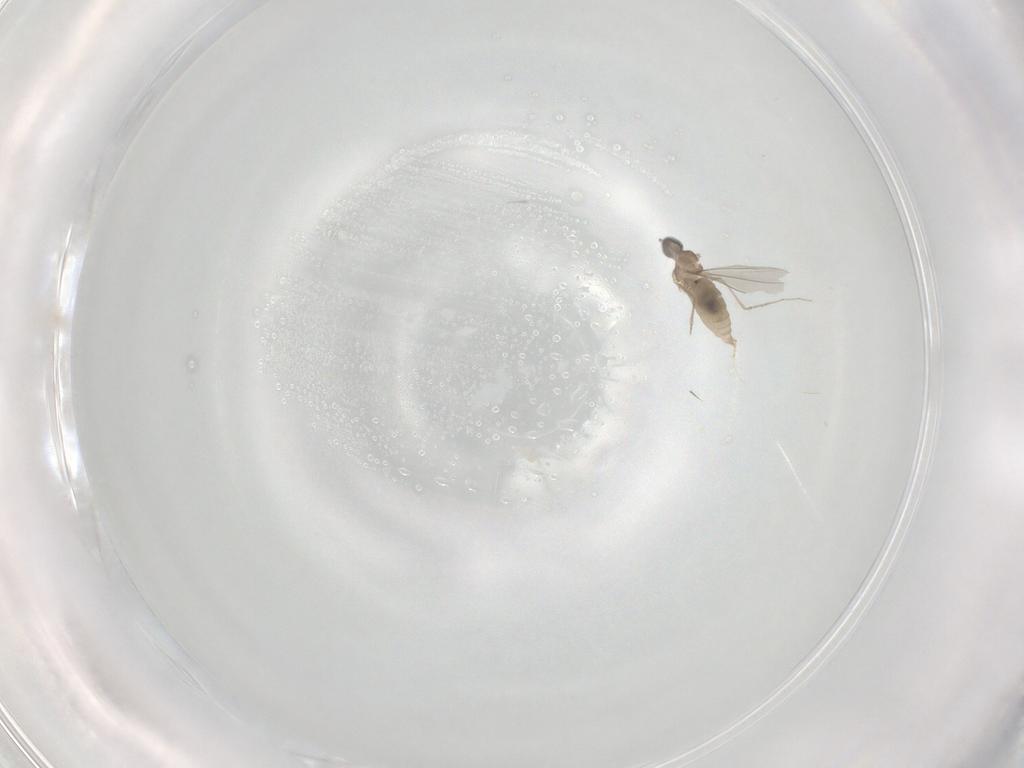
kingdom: Animalia
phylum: Arthropoda
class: Insecta
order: Diptera
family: Cecidomyiidae
